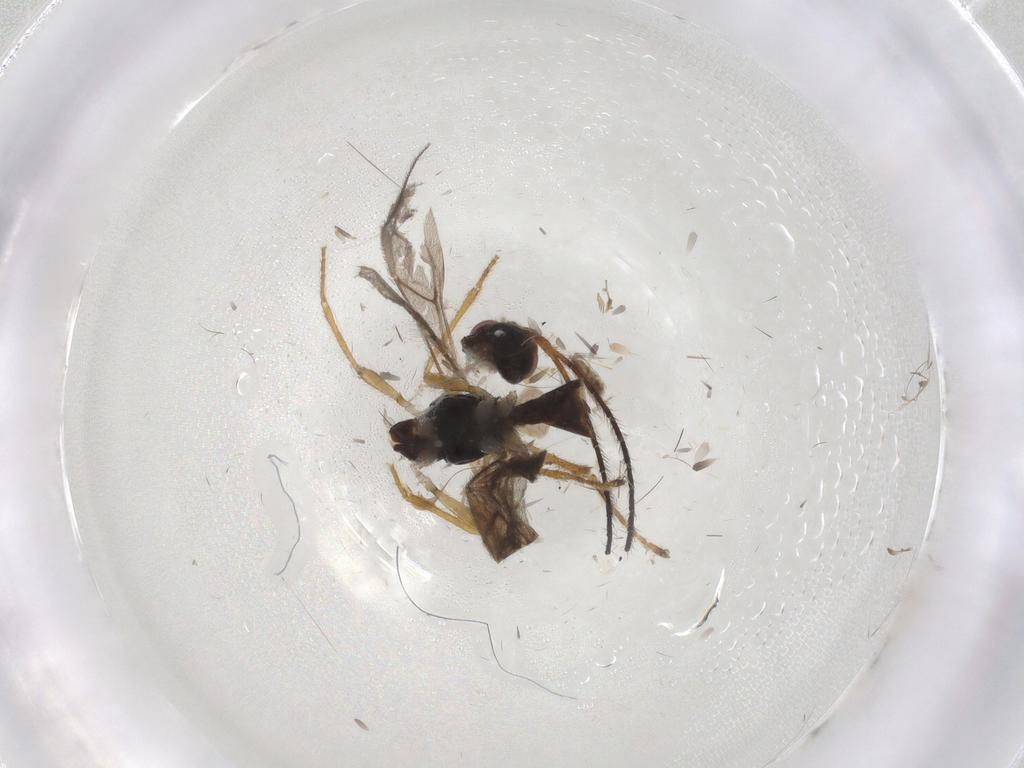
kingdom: Animalia
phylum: Arthropoda
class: Insecta
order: Diptera
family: Phoridae
